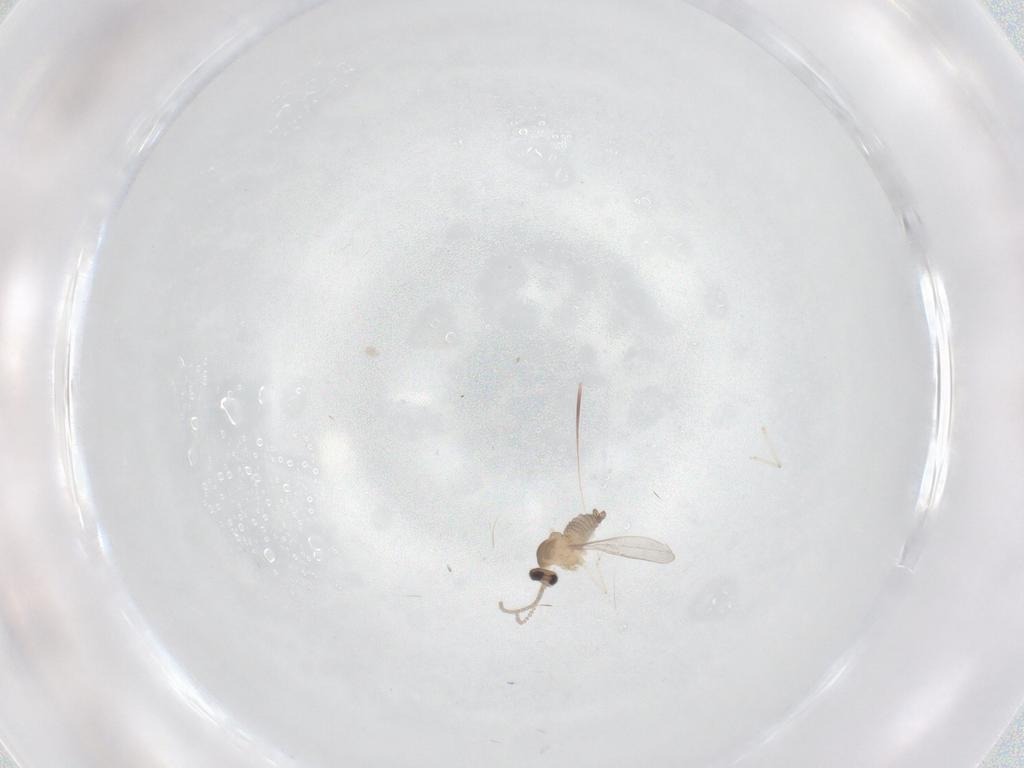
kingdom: Animalia
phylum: Arthropoda
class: Insecta
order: Diptera
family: Cecidomyiidae
